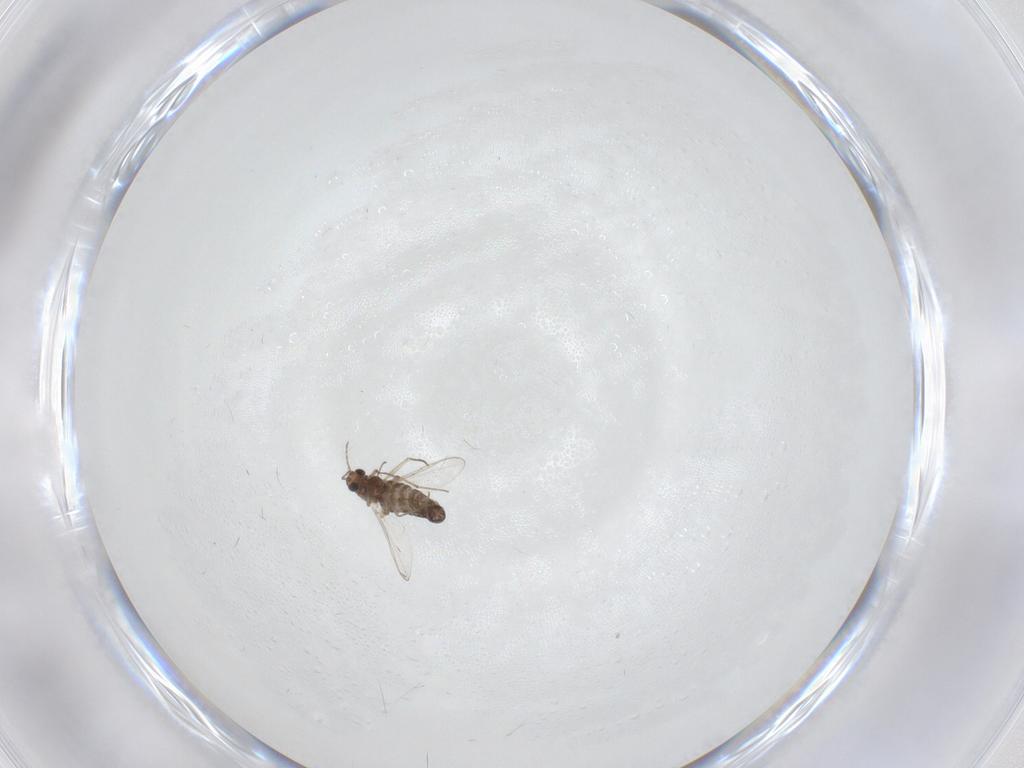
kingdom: Animalia
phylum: Arthropoda
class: Insecta
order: Diptera
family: Chironomidae
